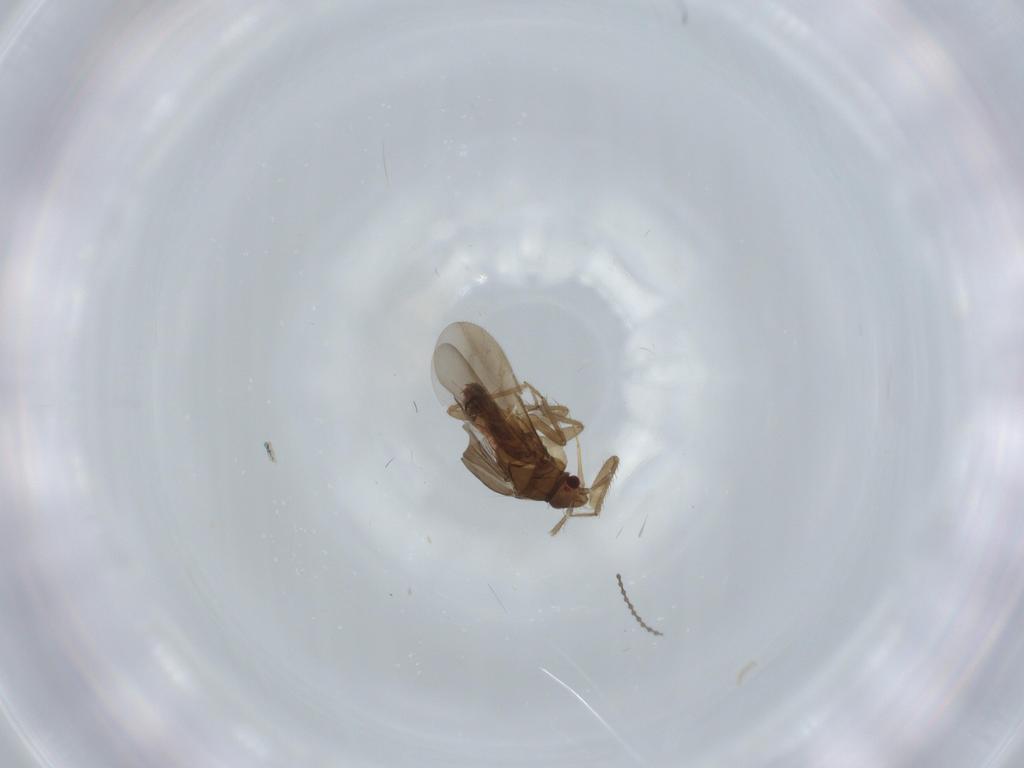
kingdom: Animalia
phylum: Arthropoda
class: Insecta
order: Hemiptera
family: Ceratocombidae
